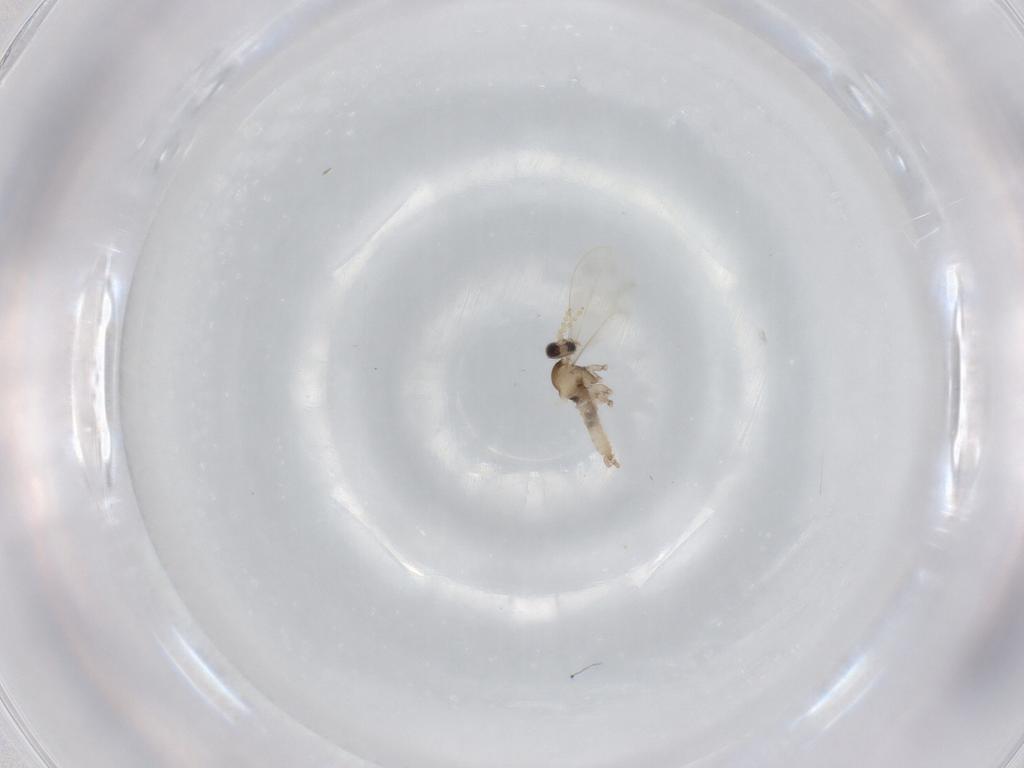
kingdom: Animalia
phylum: Arthropoda
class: Insecta
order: Diptera
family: Cecidomyiidae
